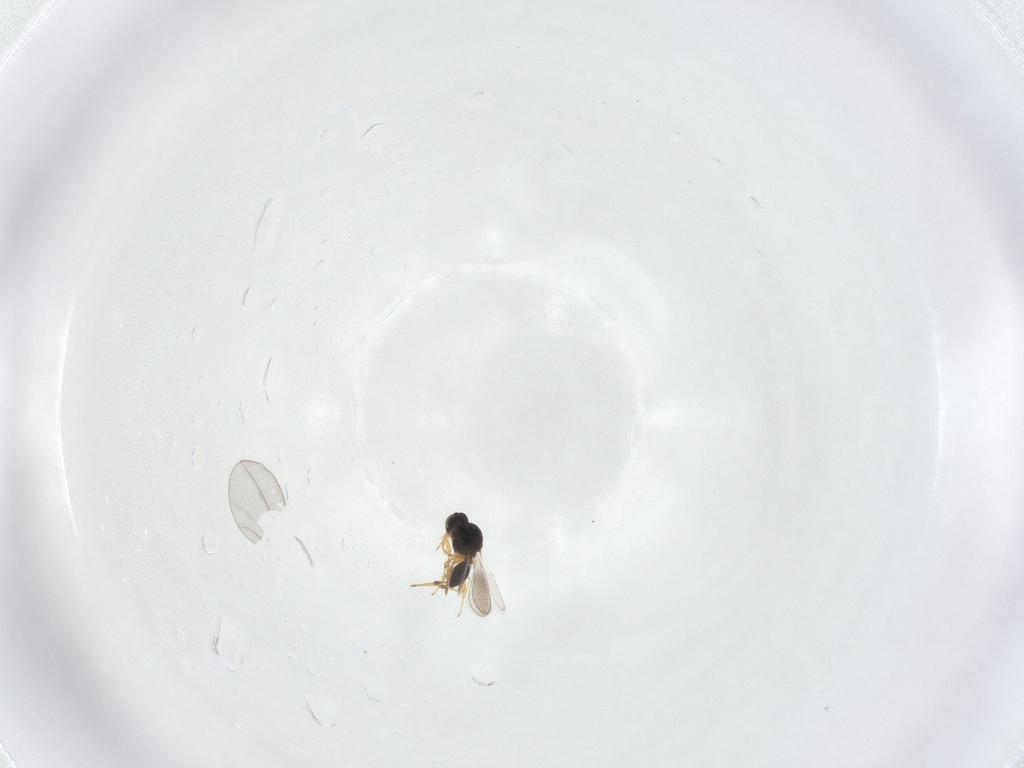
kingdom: Animalia
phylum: Arthropoda
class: Insecta
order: Hymenoptera
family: Platygastridae
